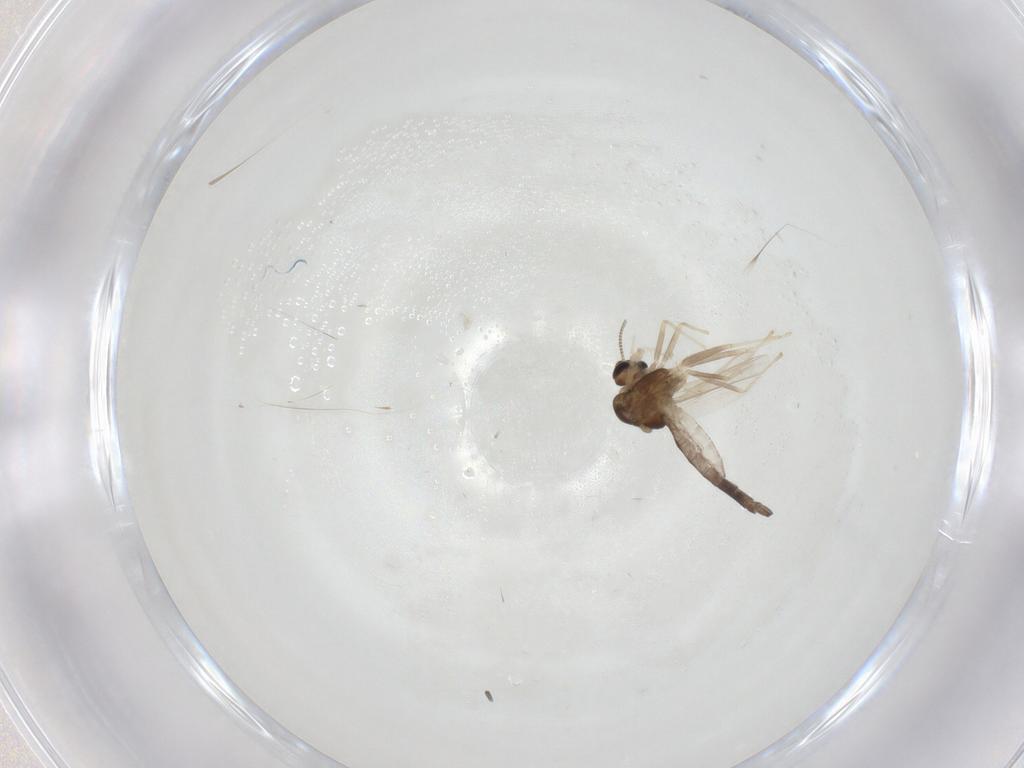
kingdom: Animalia
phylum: Arthropoda
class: Insecta
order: Diptera
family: Chironomidae
